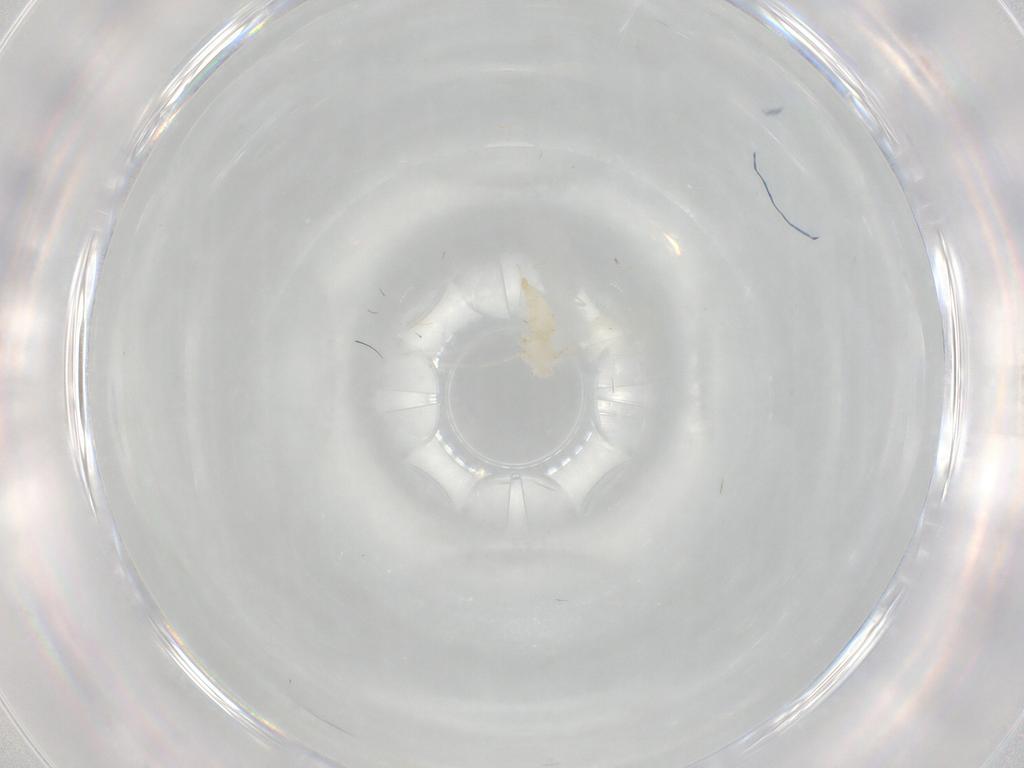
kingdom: Animalia
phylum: Arthropoda
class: Insecta
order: Diptera
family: Cecidomyiidae
